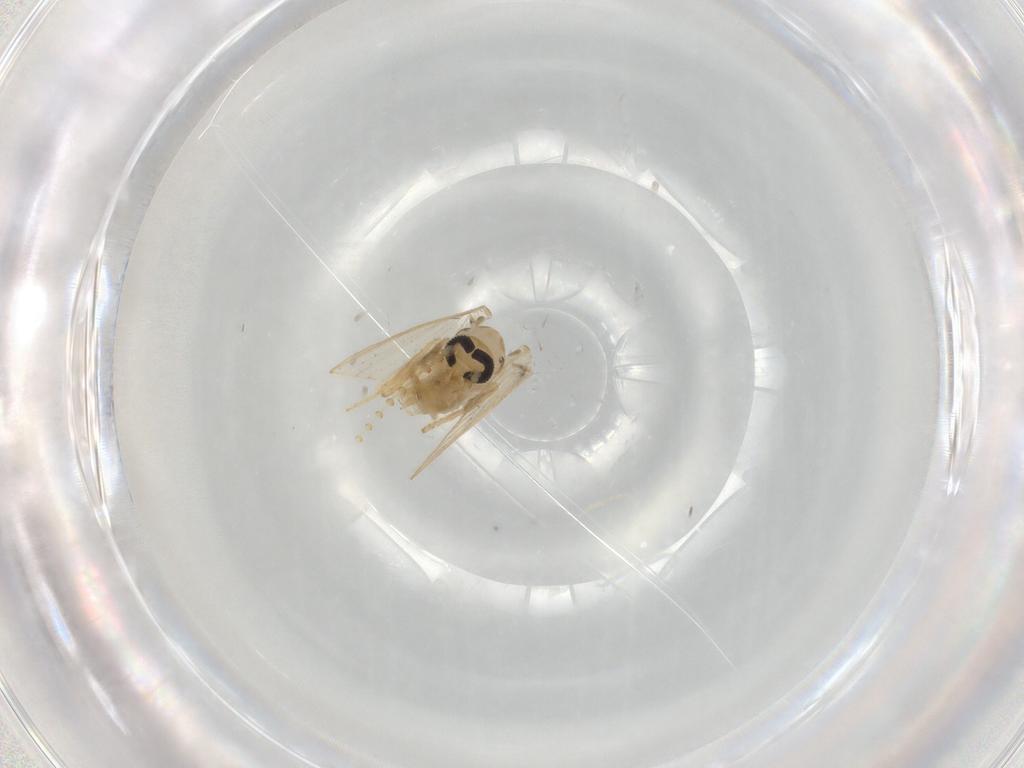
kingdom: Animalia
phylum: Arthropoda
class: Insecta
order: Diptera
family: Psychodidae
